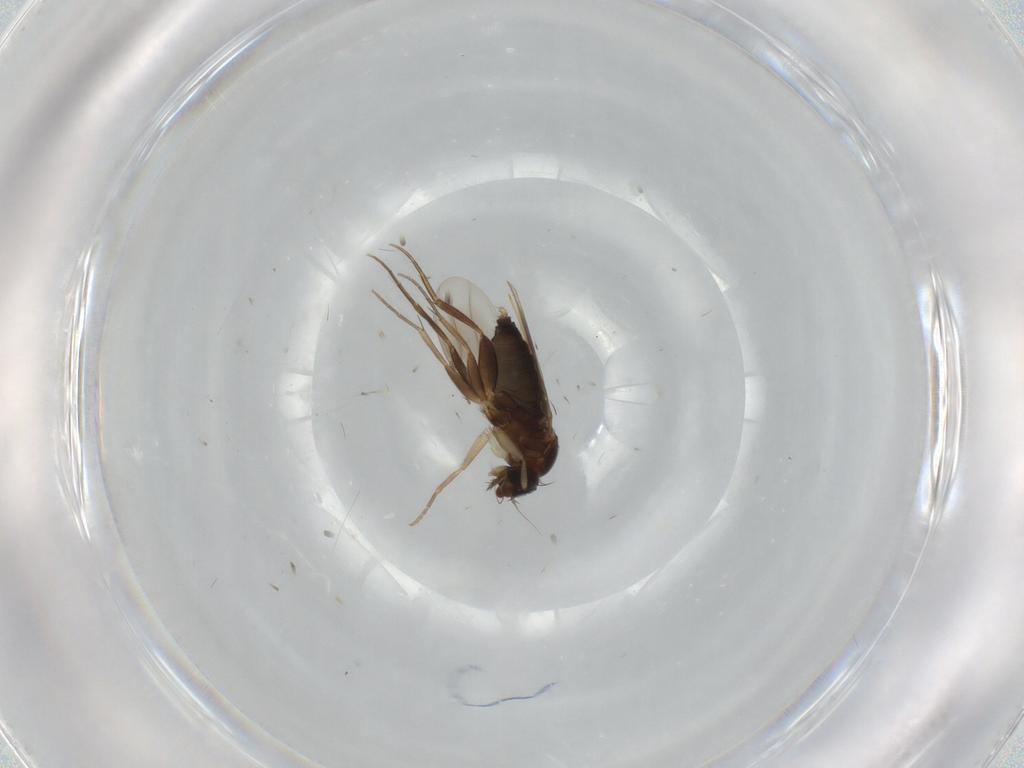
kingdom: Animalia
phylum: Arthropoda
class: Insecta
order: Diptera
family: Phoridae
